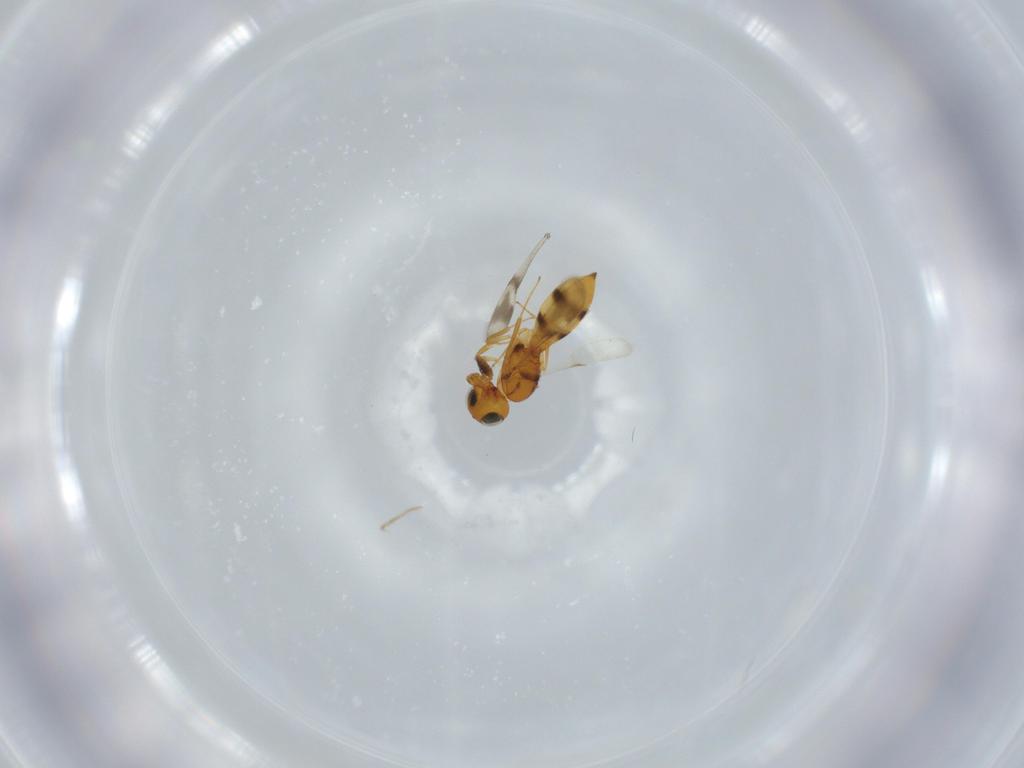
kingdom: Animalia
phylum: Arthropoda
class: Insecta
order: Hymenoptera
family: Scelionidae
